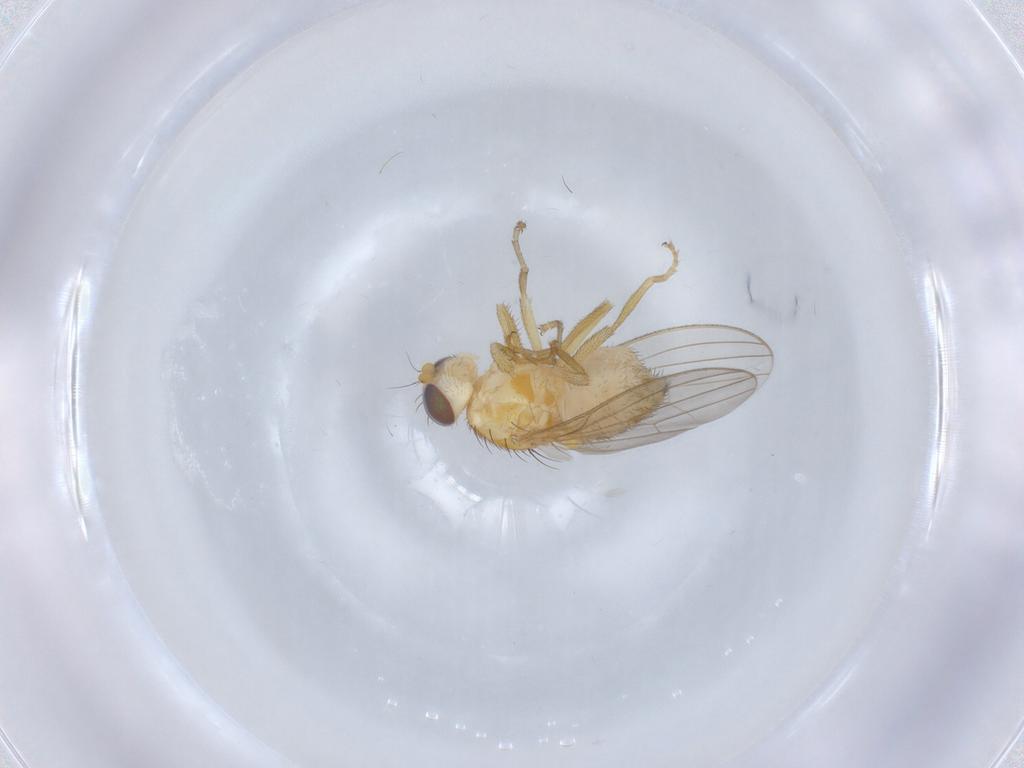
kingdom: Animalia
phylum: Arthropoda
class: Insecta
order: Diptera
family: Chyromyidae
